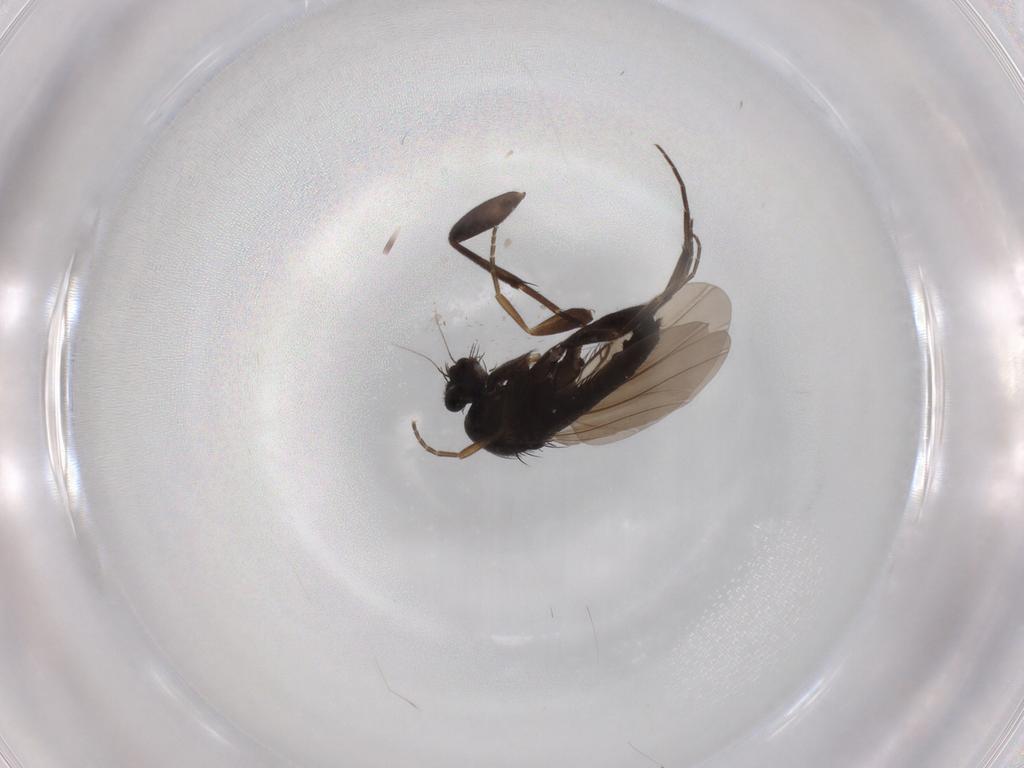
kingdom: Animalia
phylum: Arthropoda
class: Insecta
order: Diptera
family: Phoridae
